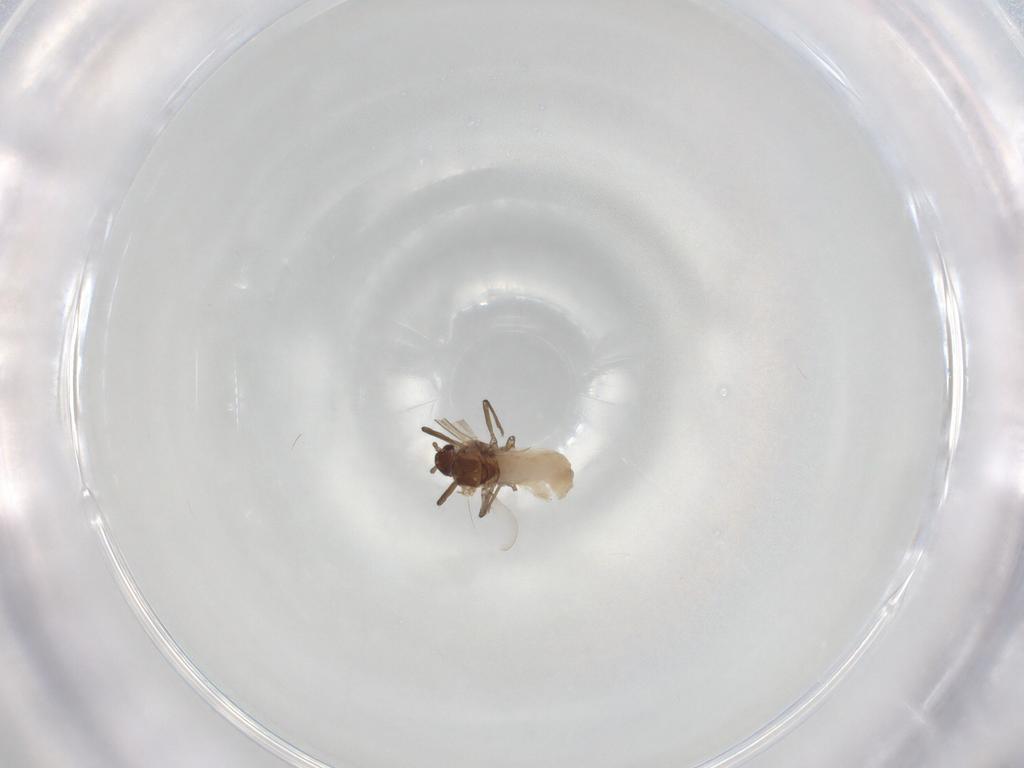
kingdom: Animalia
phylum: Arthropoda
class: Insecta
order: Hemiptera
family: Aphididae
